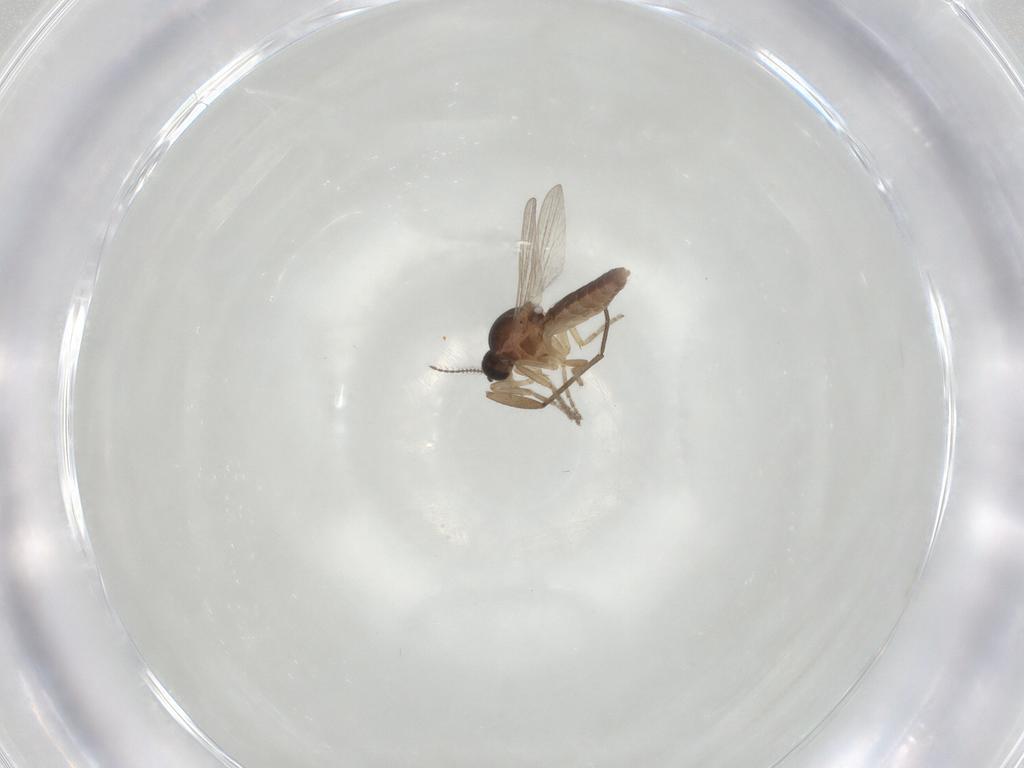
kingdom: Animalia
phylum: Arthropoda
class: Insecta
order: Diptera
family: Ceratopogonidae
